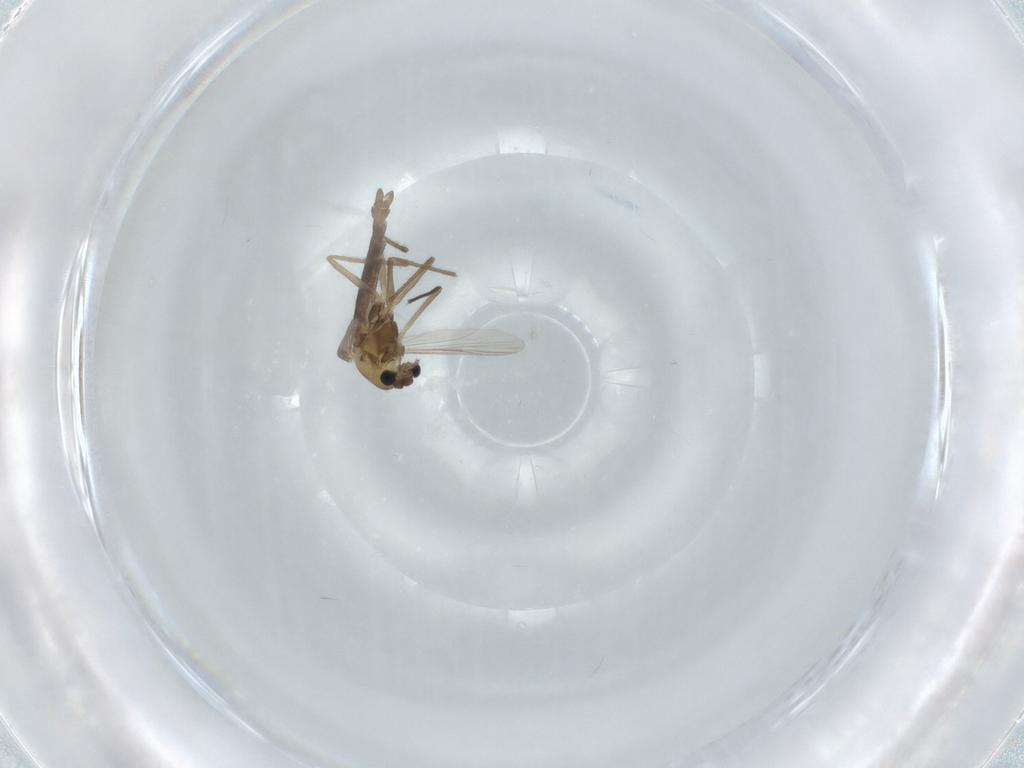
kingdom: Animalia
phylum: Arthropoda
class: Insecta
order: Diptera
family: Chironomidae
